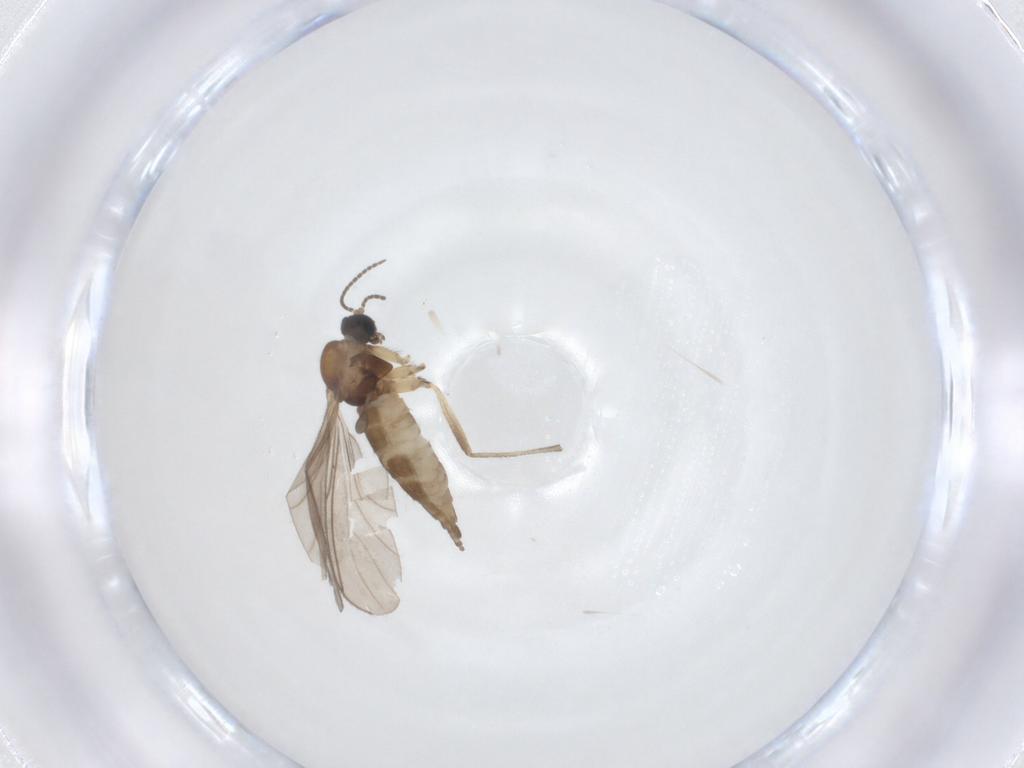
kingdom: Animalia
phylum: Arthropoda
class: Insecta
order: Diptera
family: Sciaridae
